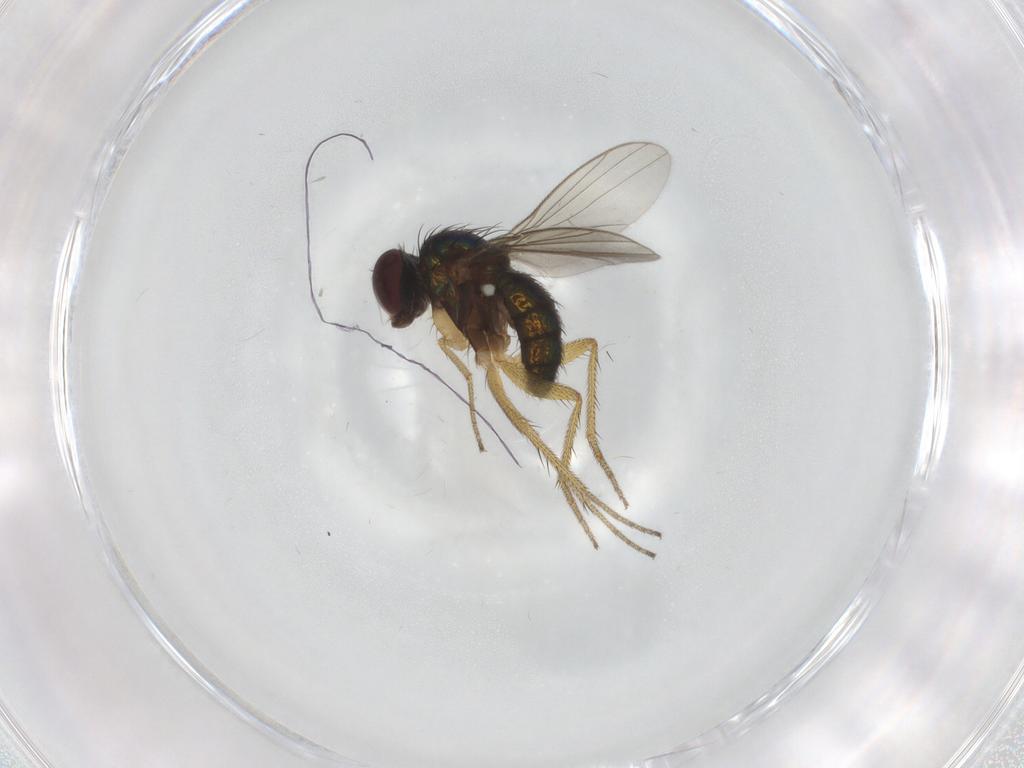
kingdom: Animalia
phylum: Arthropoda
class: Insecta
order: Diptera
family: Dolichopodidae
